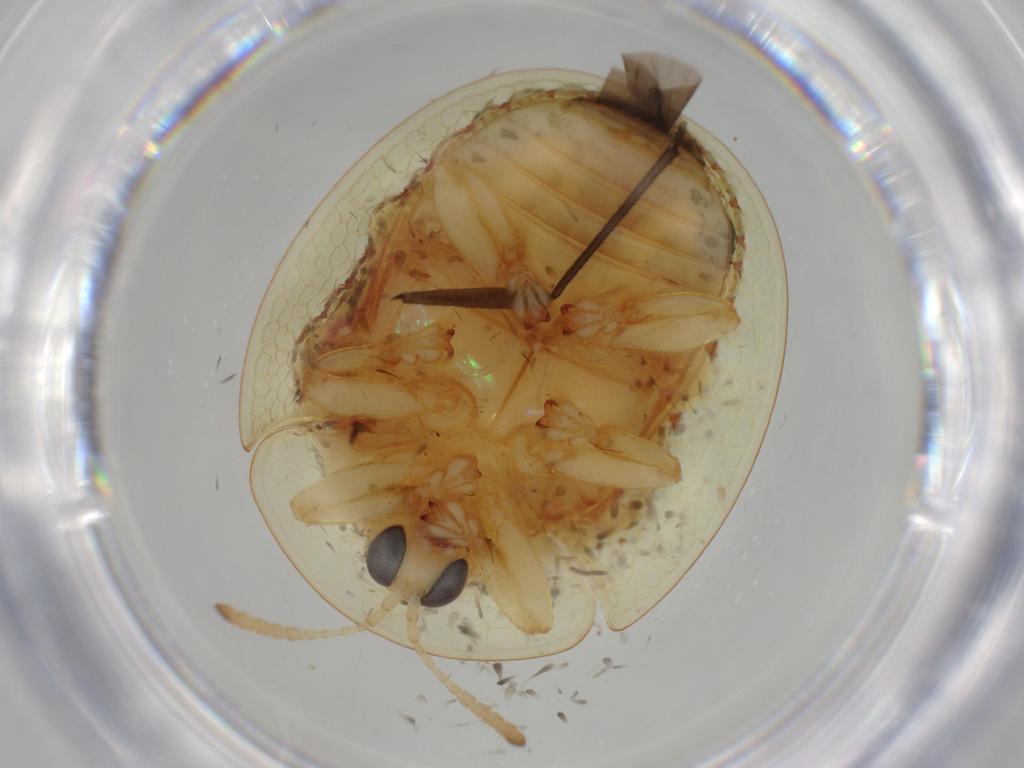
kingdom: Animalia
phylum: Arthropoda
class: Insecta
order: Coleoptera
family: Chrysomelidae
